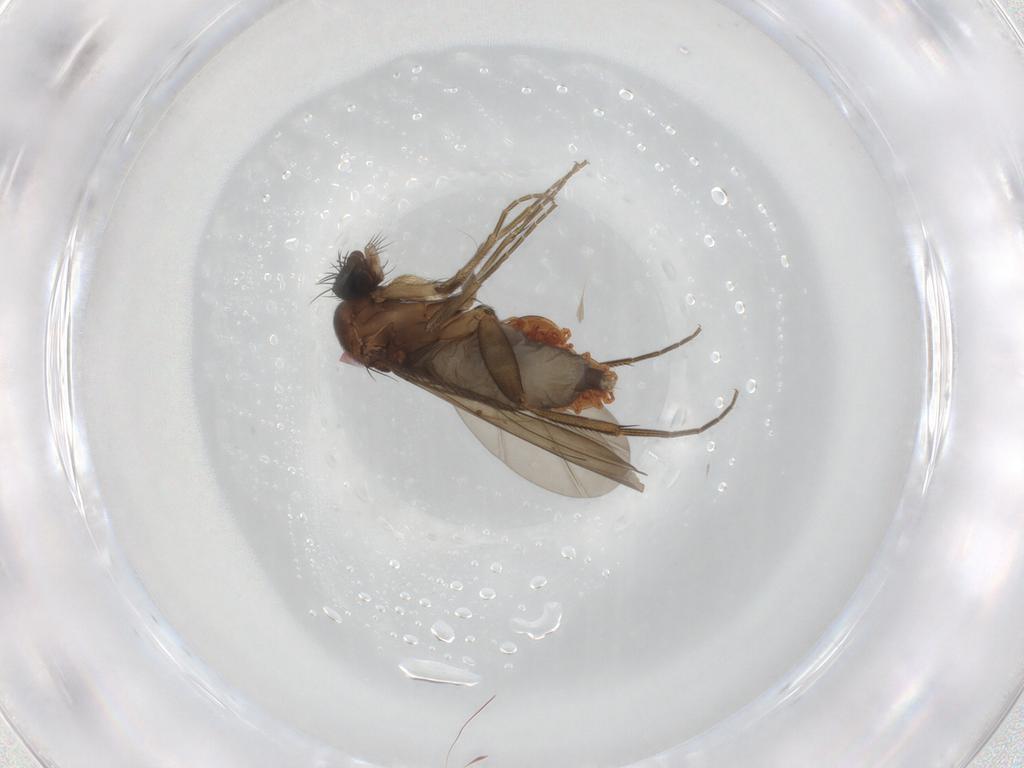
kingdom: Animalia
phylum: Arthropoda
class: Insecta
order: Diptera
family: Phoridae
